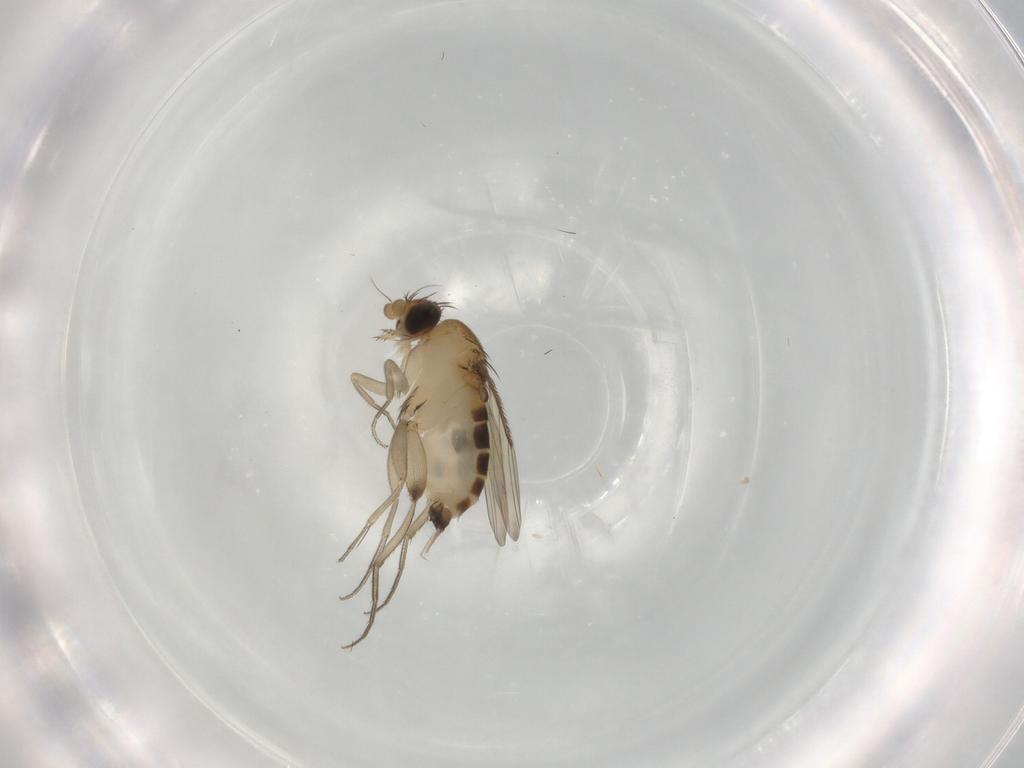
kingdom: Animalia
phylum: Arthropoda
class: Insecta
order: Diptera
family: Phoridae
